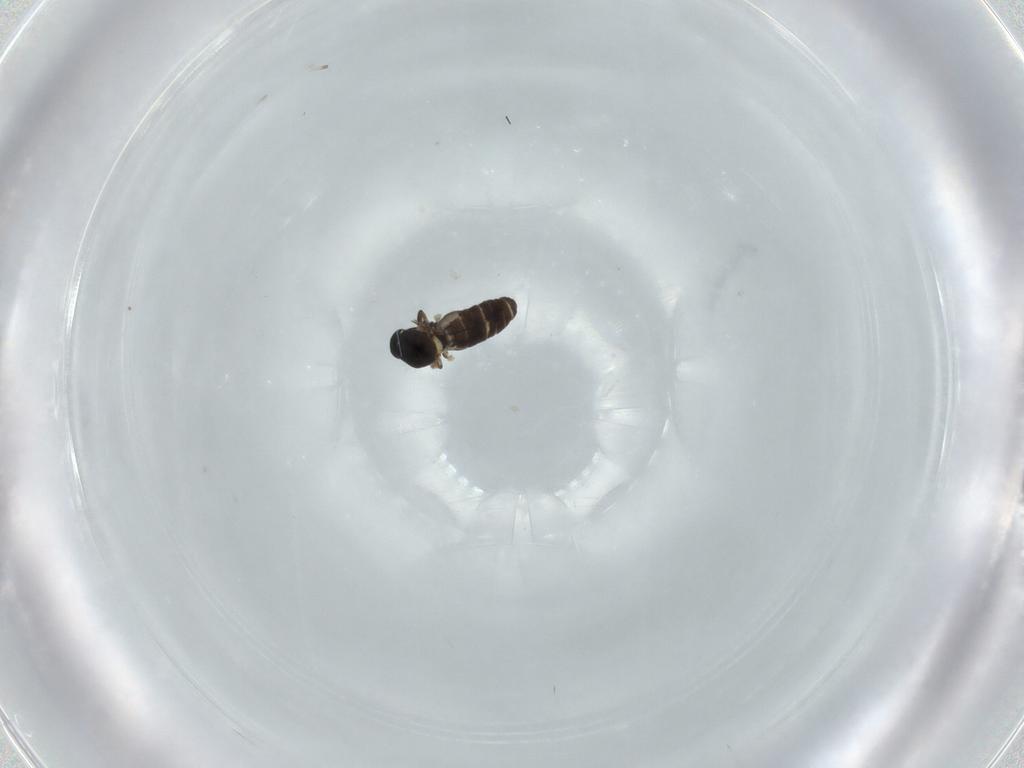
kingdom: Animalia
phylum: Arthropoda
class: Insecta
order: Diptera
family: Ceratopogonidae
